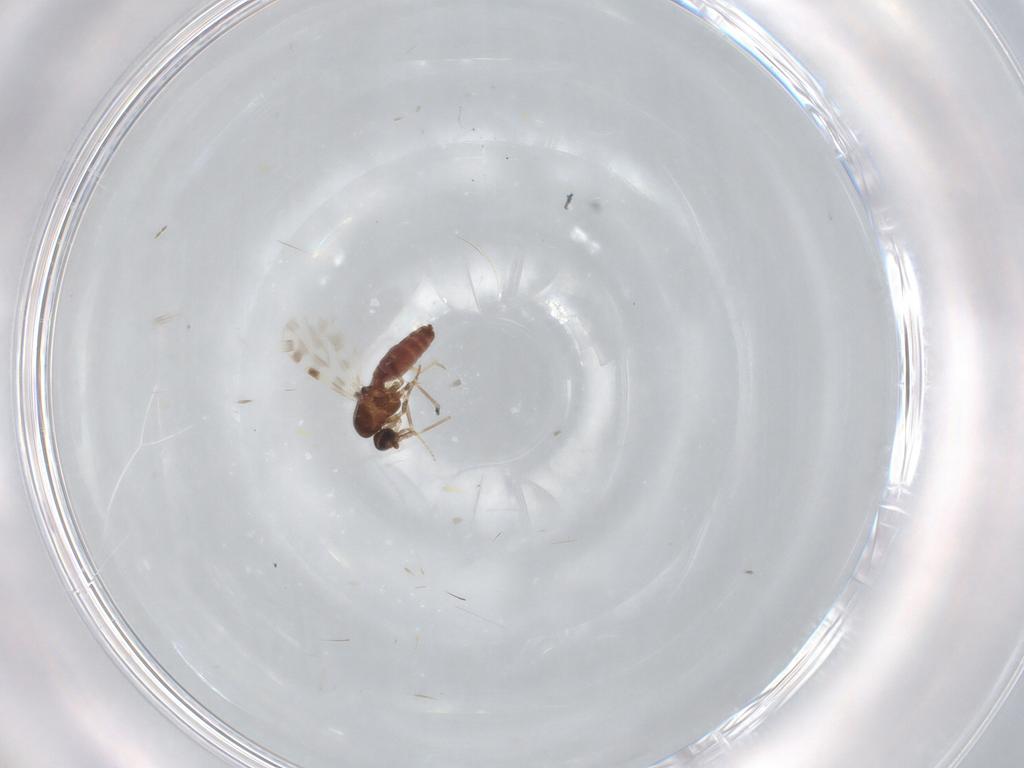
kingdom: Animalia
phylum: Arthropoda
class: Insecta
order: Diptera
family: Ceratopogonidae
